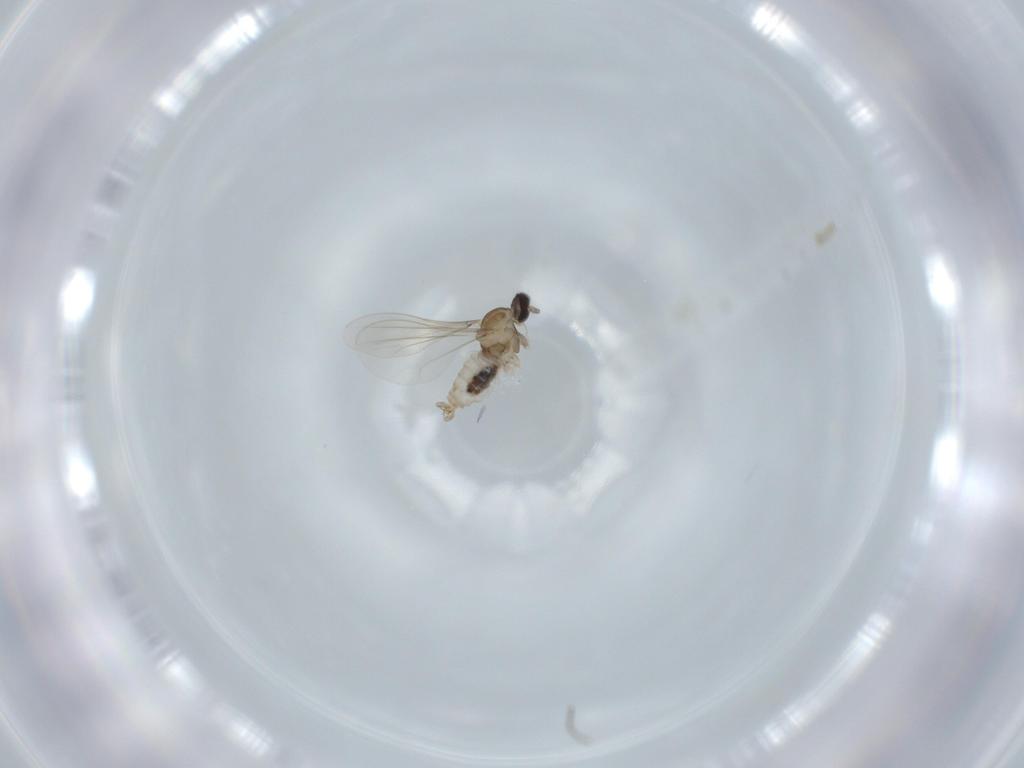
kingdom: Animalia
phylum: Arthropoda
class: Insecta
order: Diptera
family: Cecidomyiidae
